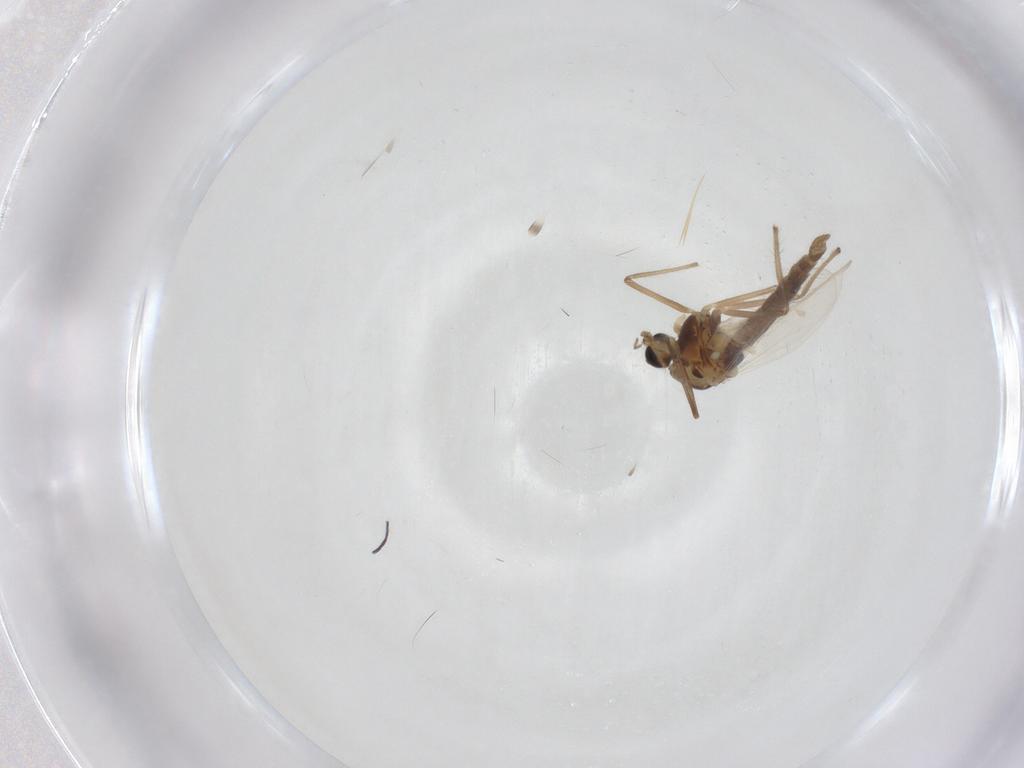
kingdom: Animalia
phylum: Arthropoda
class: Insecta
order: Diptera
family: Chironomidae
